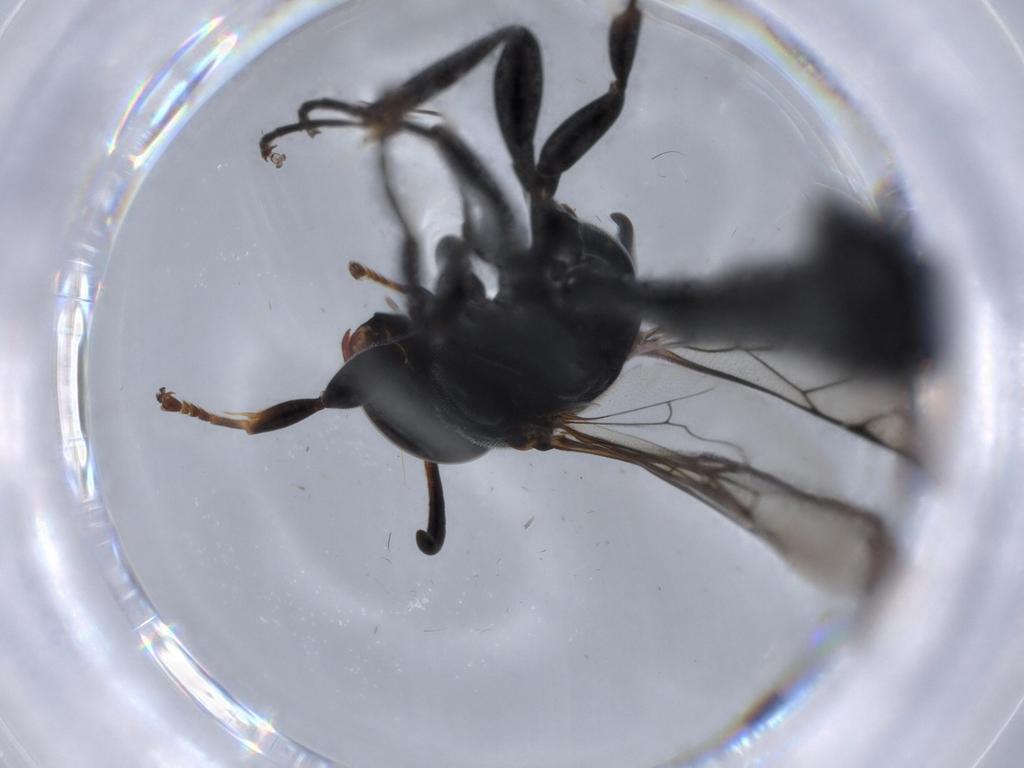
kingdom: Animalia
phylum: Arthropoda
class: Insecta
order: Hymenoptera
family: Figitidae
